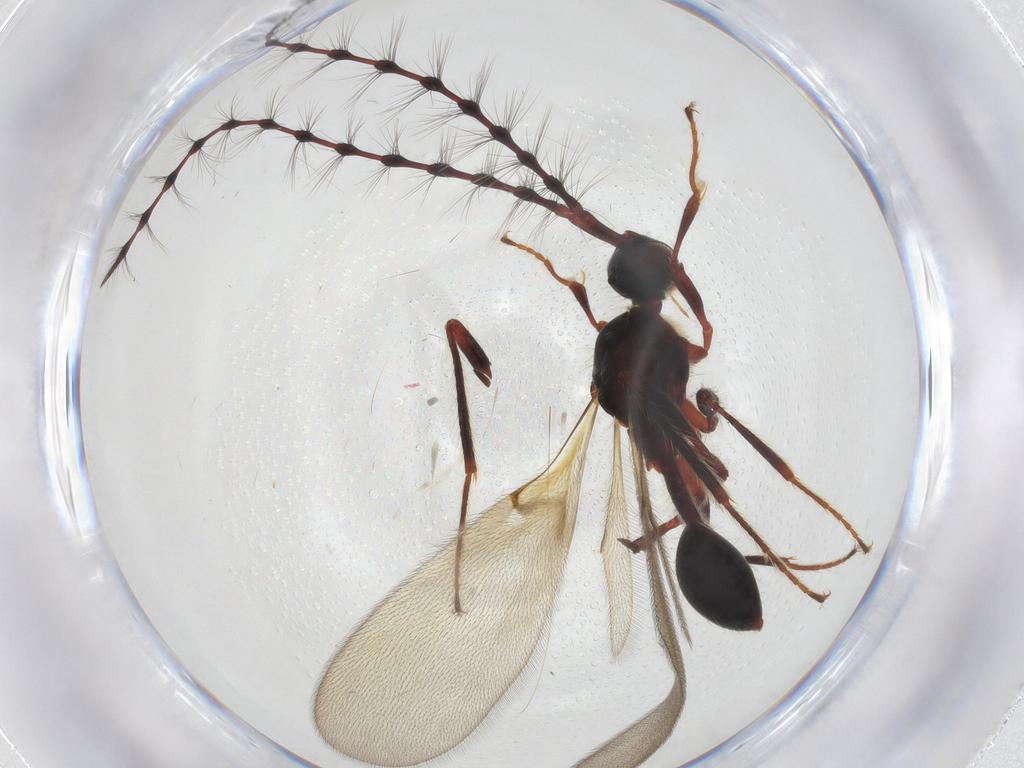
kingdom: Animalia
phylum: Arthropoda
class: Insecta
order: Hymenoptera
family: Diapriidae
